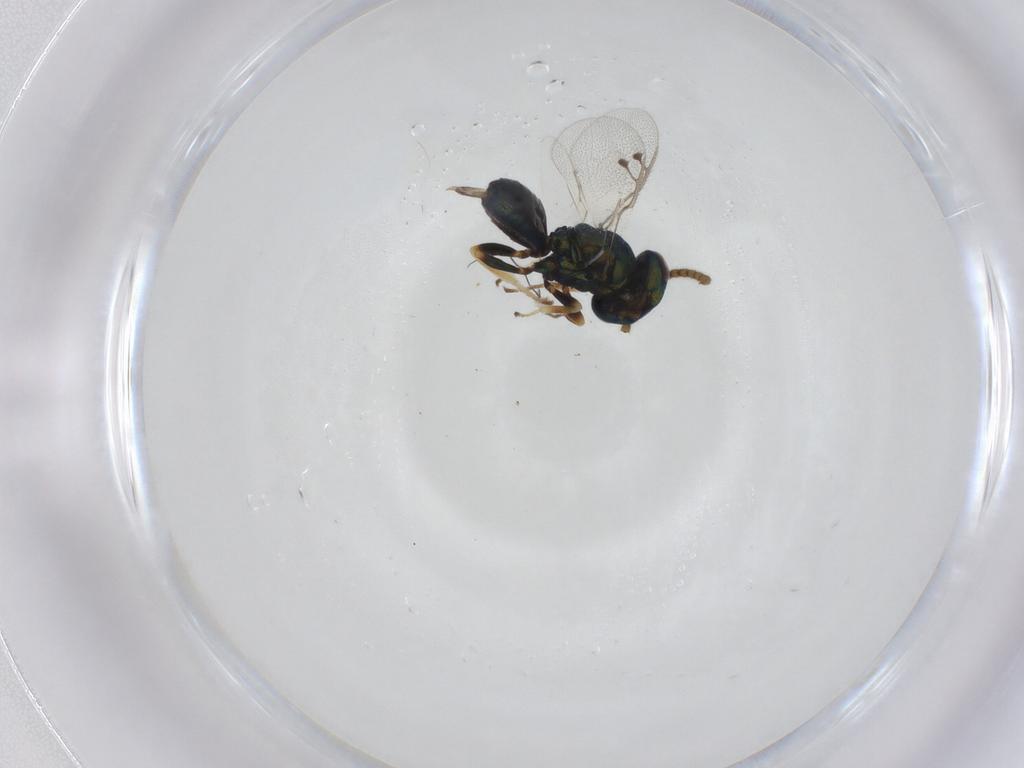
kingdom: Animalia
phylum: Arthropoda
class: Insecta
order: Hymenoptera
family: Pteromalidae
